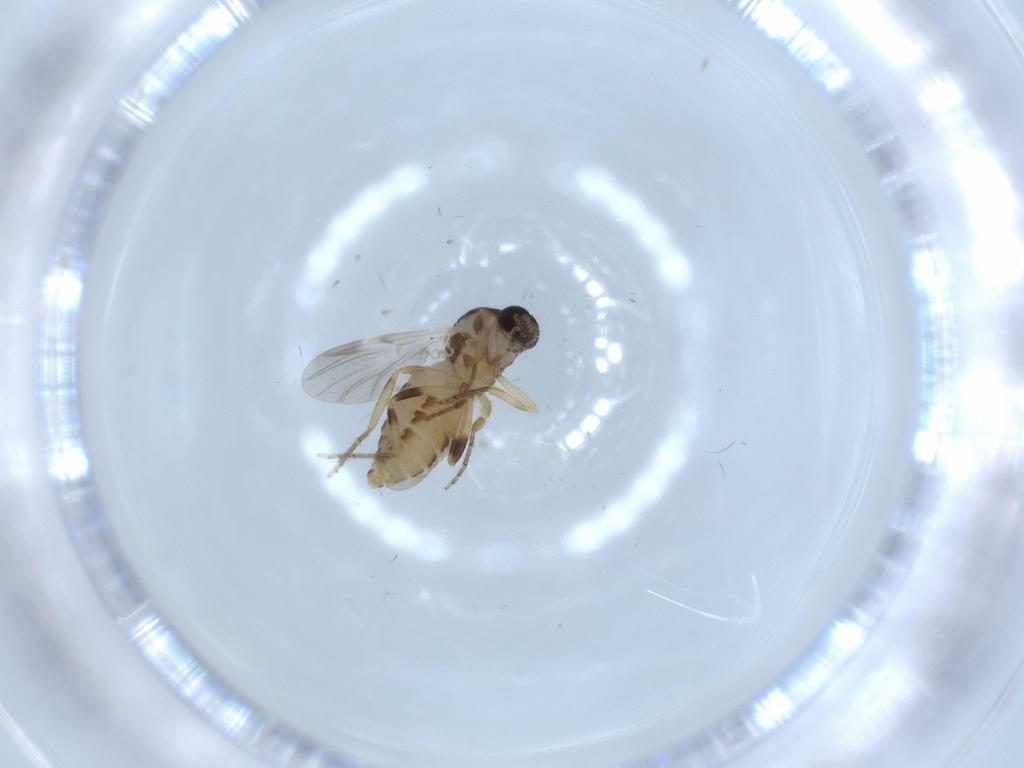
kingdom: Animalia
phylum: Arthropoda
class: Insecta
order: Diptera
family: Ceratopogonidae
